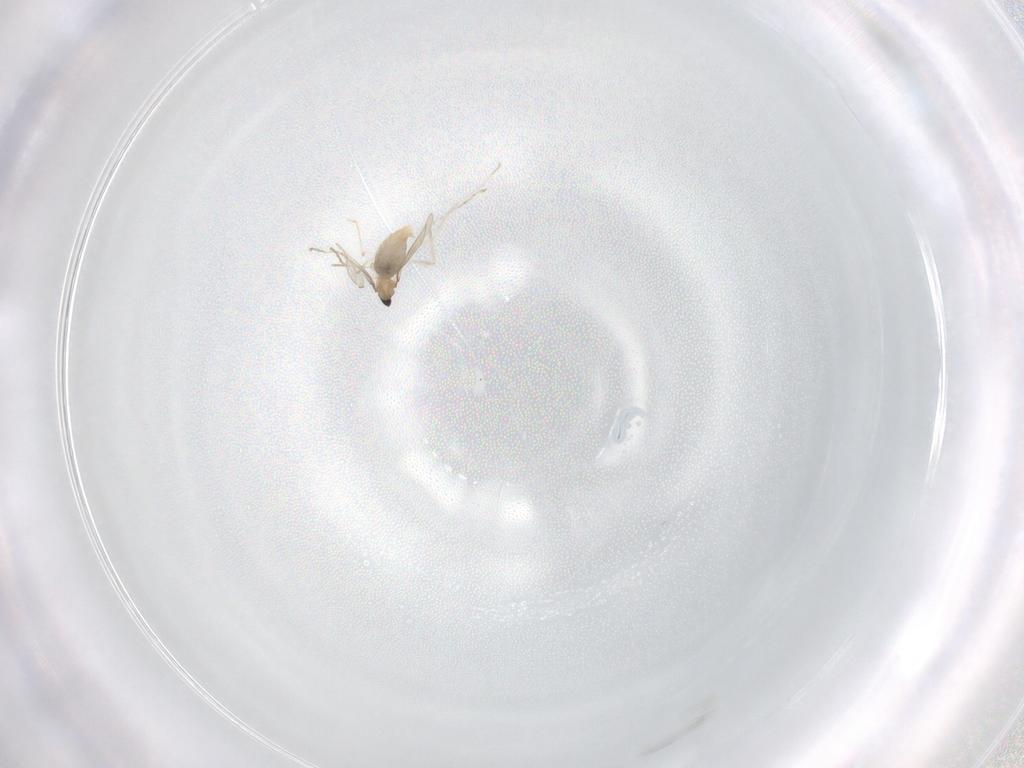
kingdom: Animalia
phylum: Arthropoda
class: Insecta
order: Diptera
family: Cecidomyiidae
